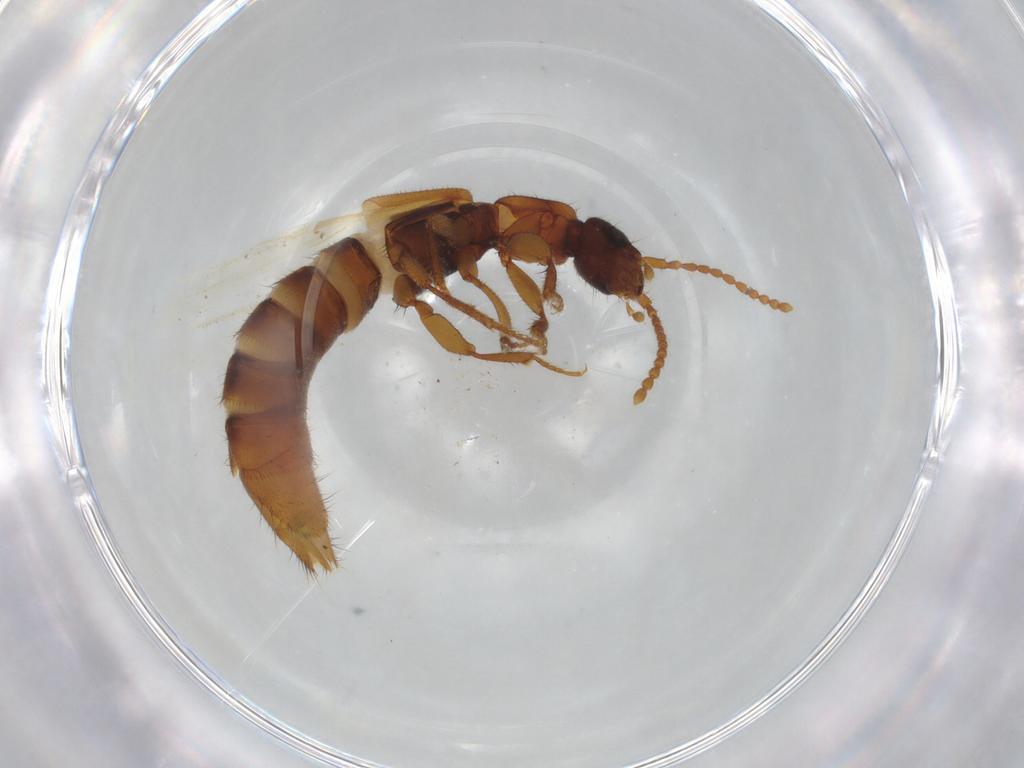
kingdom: Animalia
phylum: Arthropoda
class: Insecta
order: Coleoptera
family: Staphylinidae
